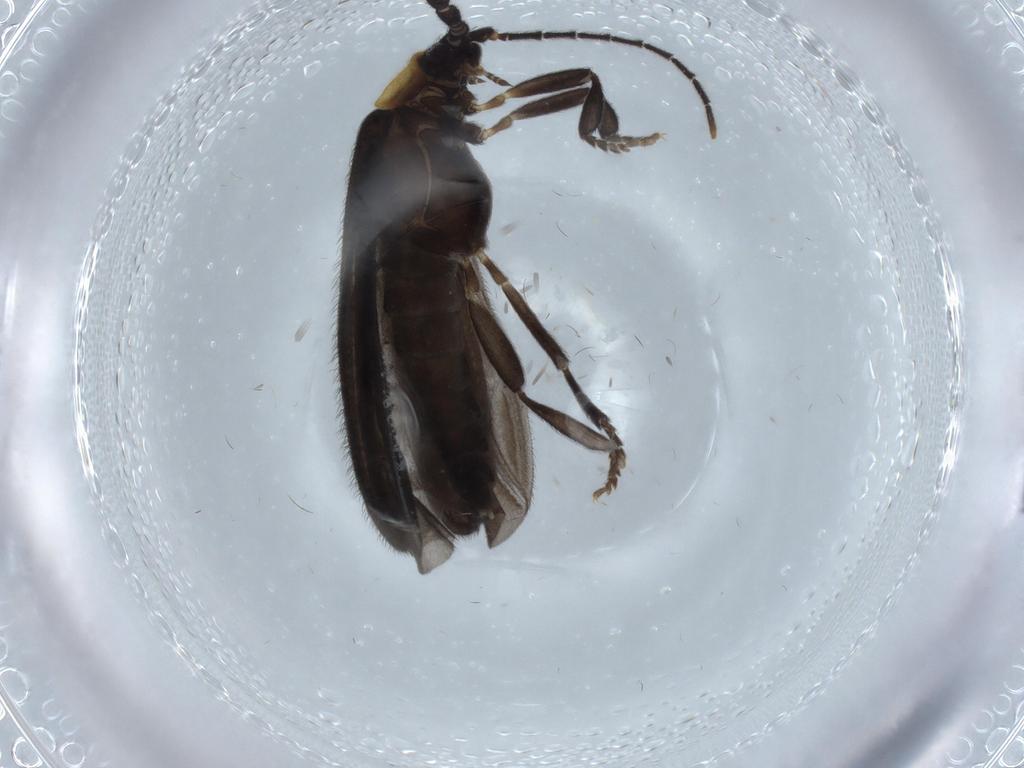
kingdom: Animalia
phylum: Arthropoda
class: Insecta
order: Coleoptera
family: Lycidae
